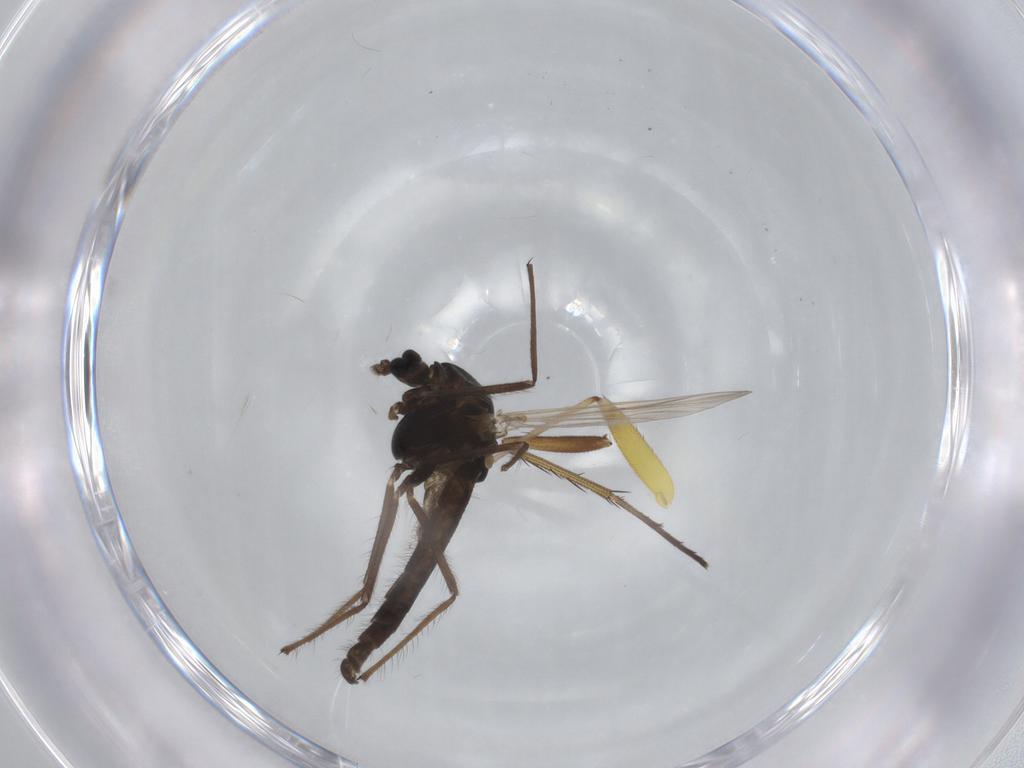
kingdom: Animalia
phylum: Arthropoda
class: Insecta
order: Diptera
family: Chironomidae
